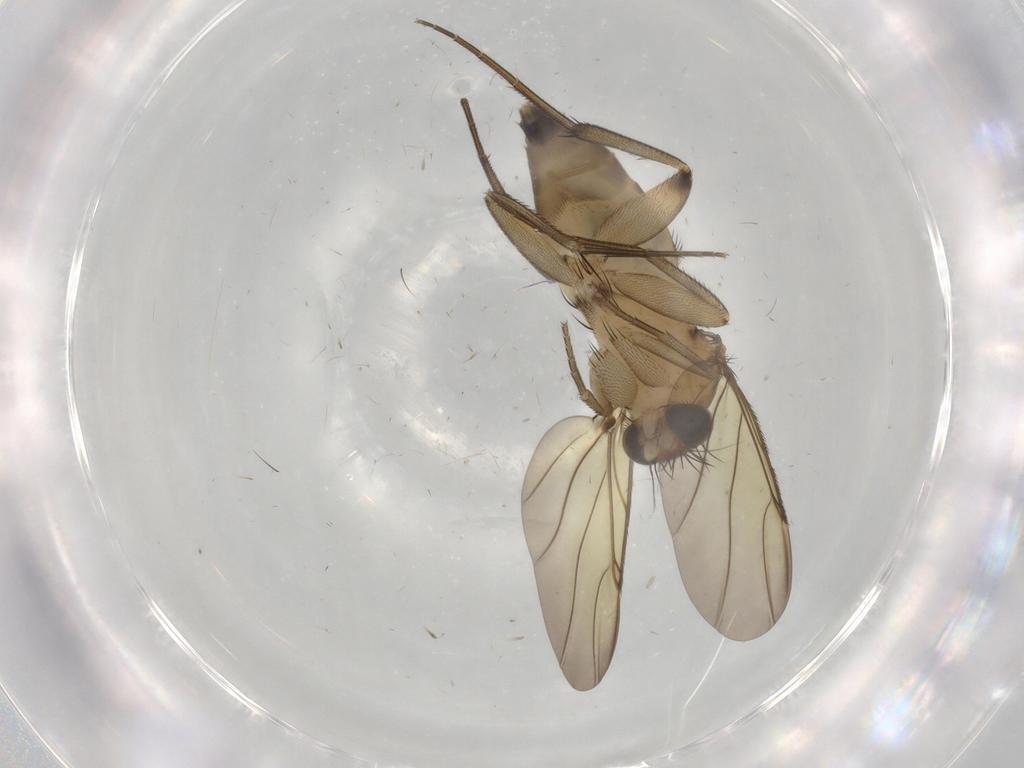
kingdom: Animalia
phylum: Arthropoda
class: Insecta
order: Diptera
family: Phoridae
